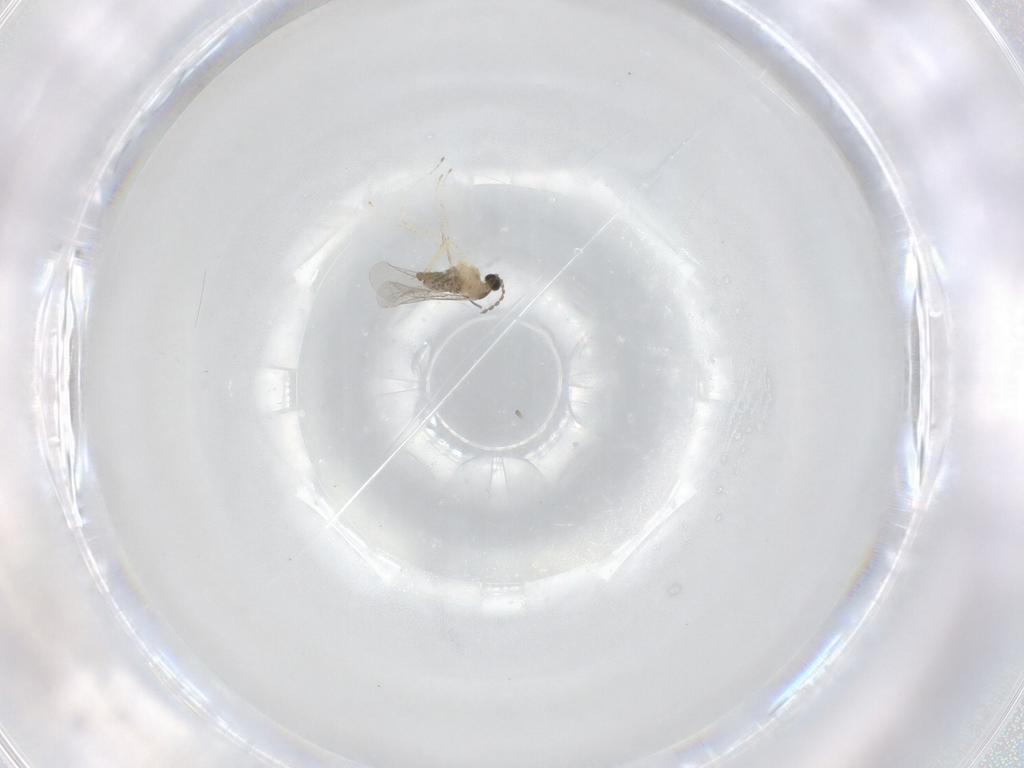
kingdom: Animalia
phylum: Arthropoda
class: Insecta
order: Diptera
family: Cecidomyiidae
